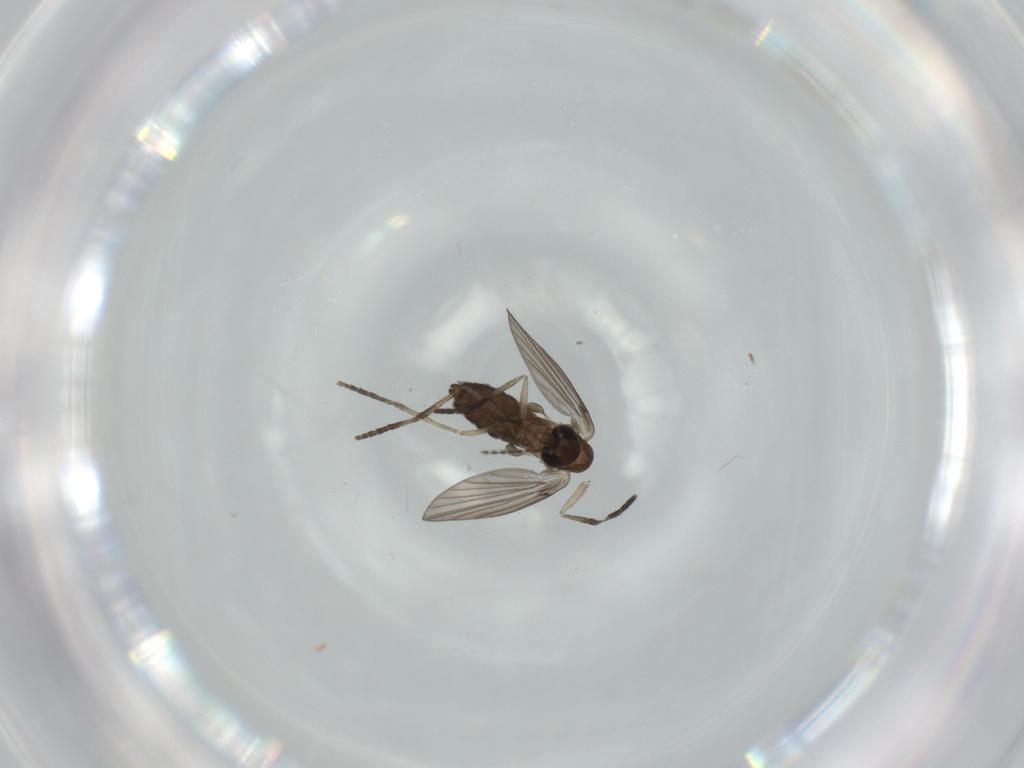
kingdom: Animalia
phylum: Arthropoda
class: Insecta
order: Diptera
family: Psychodidae
